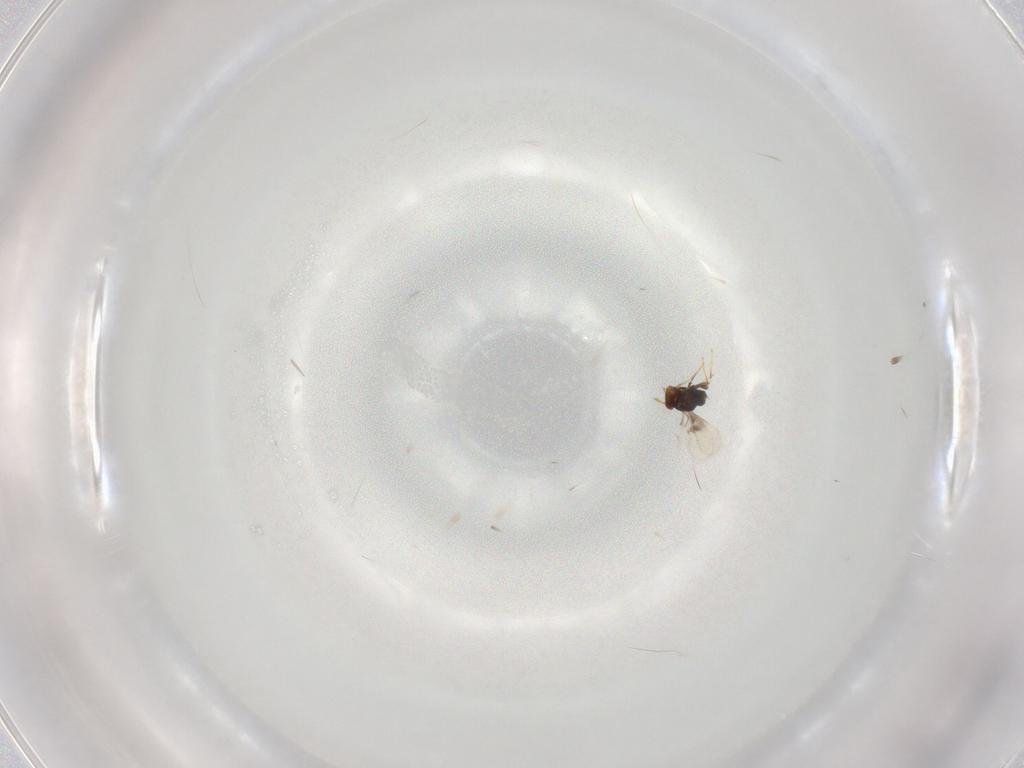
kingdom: Animalia
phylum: Arthropoda
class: Insecta
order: Hymenoptera
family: Trichogrammatidae
